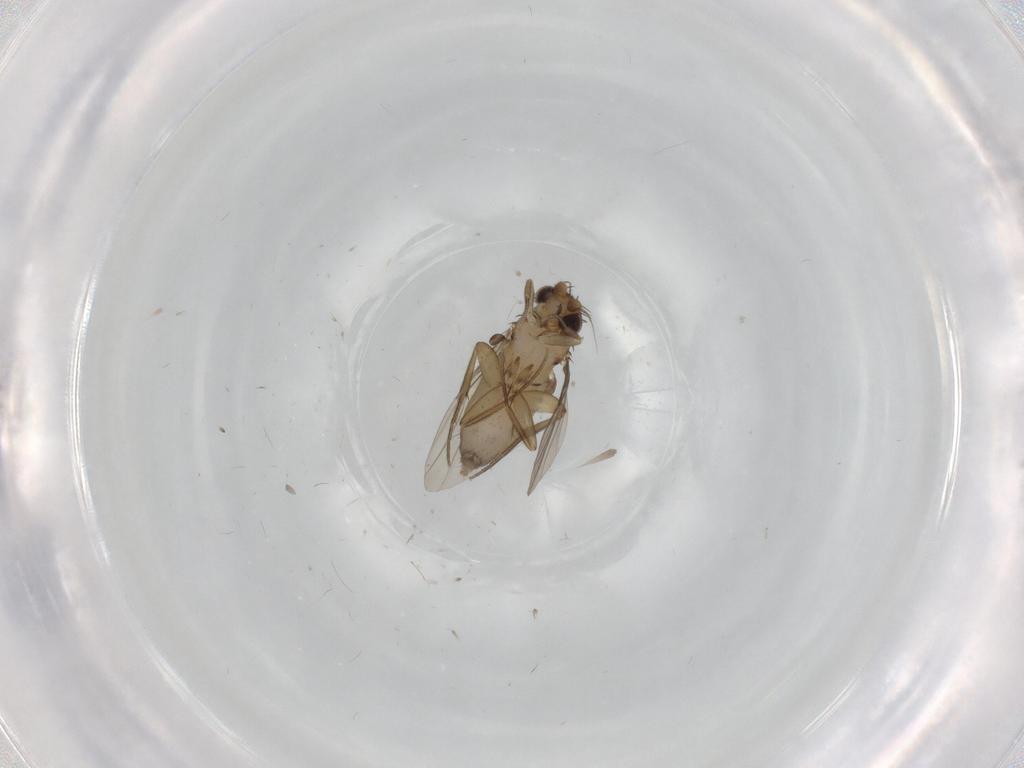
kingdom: Animalia
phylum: Arthropoda
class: Insecta
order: Diptera
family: Phoridae
